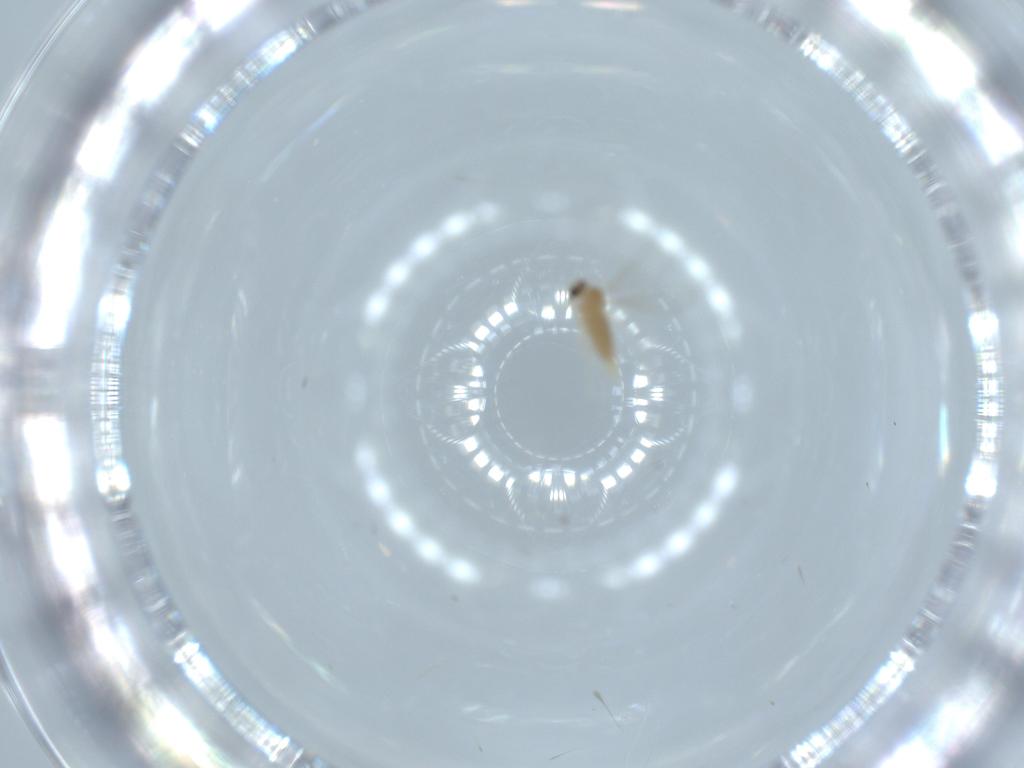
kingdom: Animalia
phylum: Arthropoda
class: Insecta
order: Diptera
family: Cecidomyiidae
